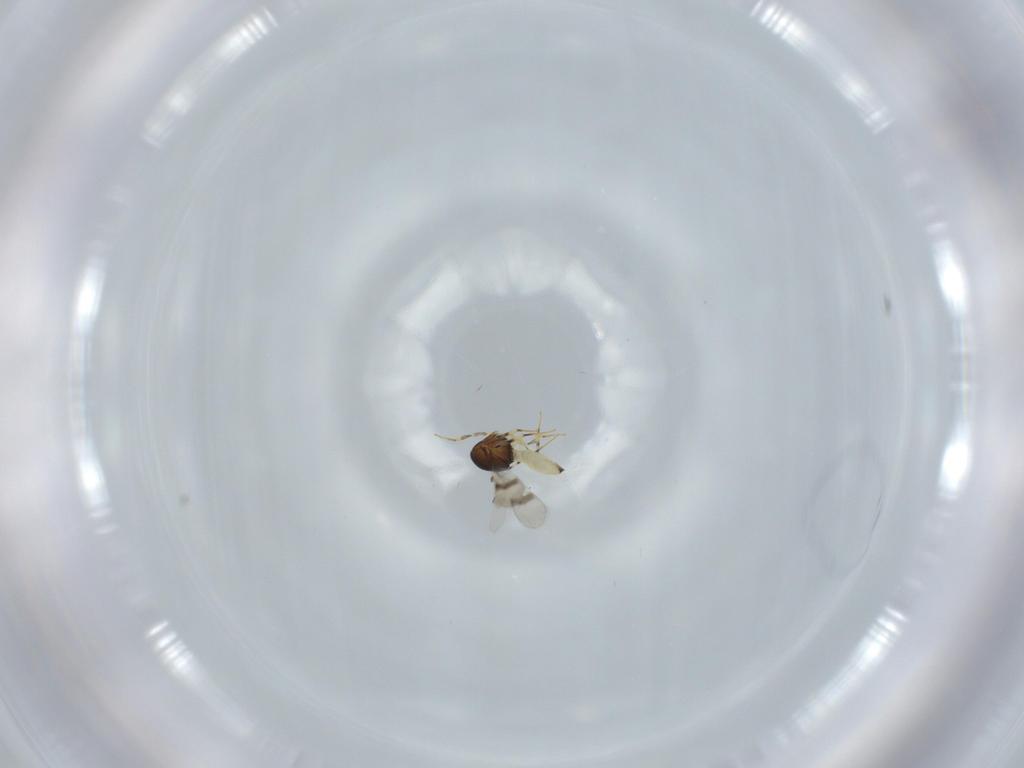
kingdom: Animalia
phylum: Arthropoda
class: Insecta
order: Hymenoptera
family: Scelionidae
